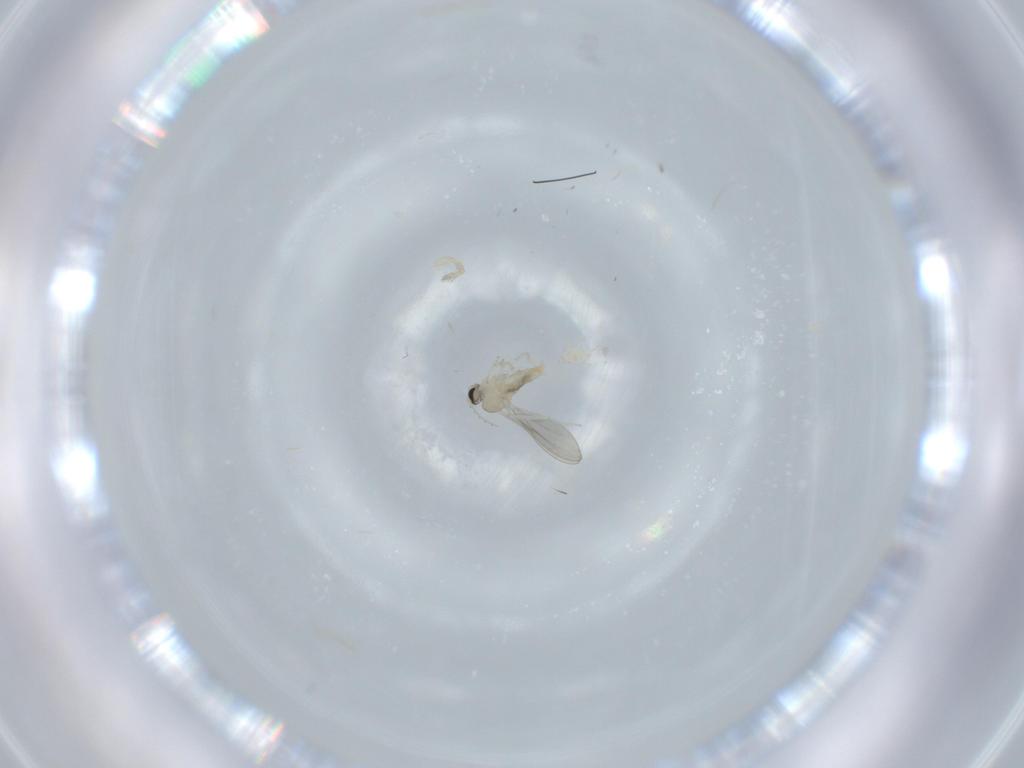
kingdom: Animalia
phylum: Arthropoda
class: Insecta
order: Diptera
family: Cecidomyiidae
